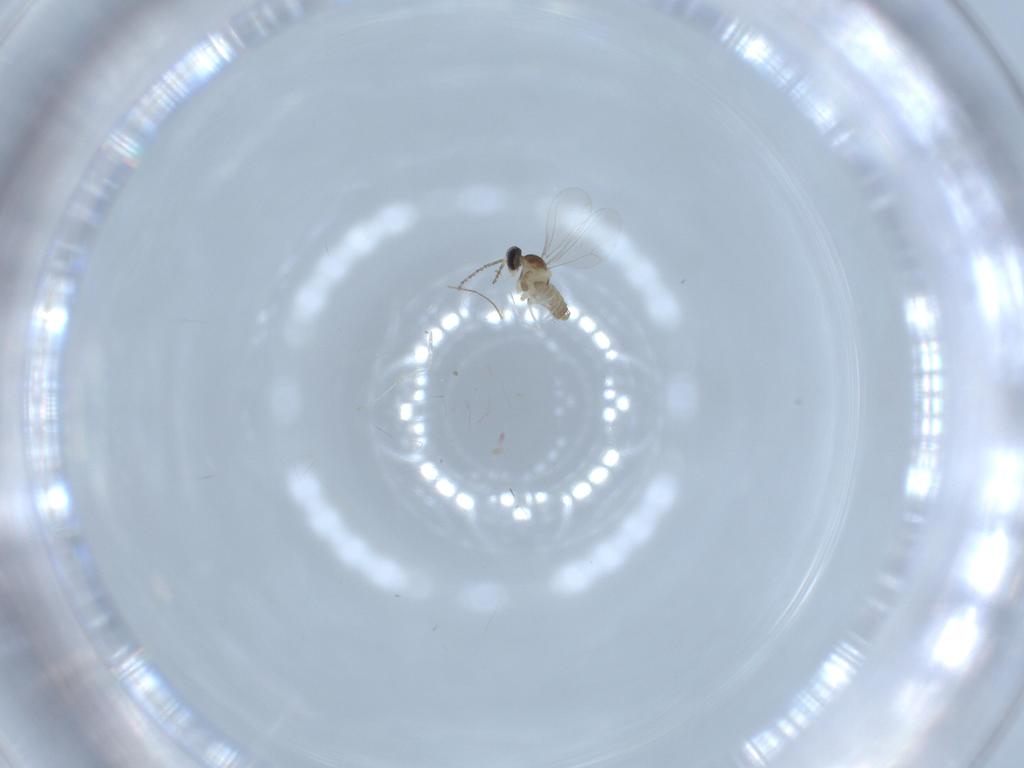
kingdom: Animalia
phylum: Arthropoda
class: Insecta
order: Diptera
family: Cecidomyiidae
